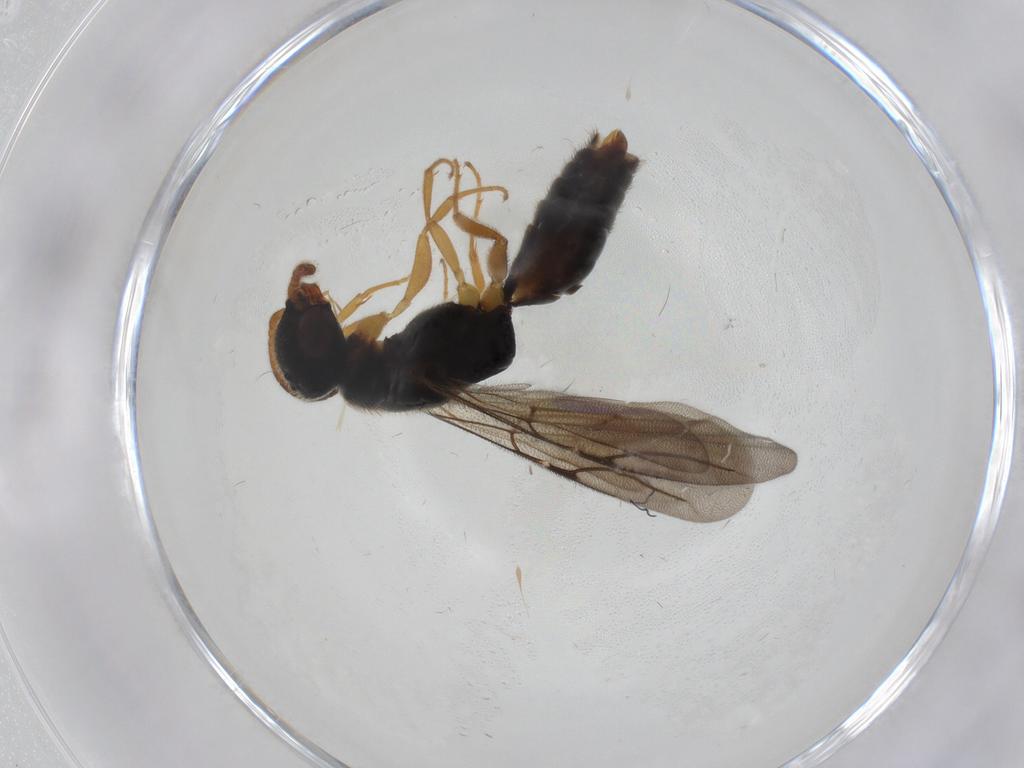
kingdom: Animalia
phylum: Arthropoda
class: Insecta
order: Hymenoptera
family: Bethylidae
